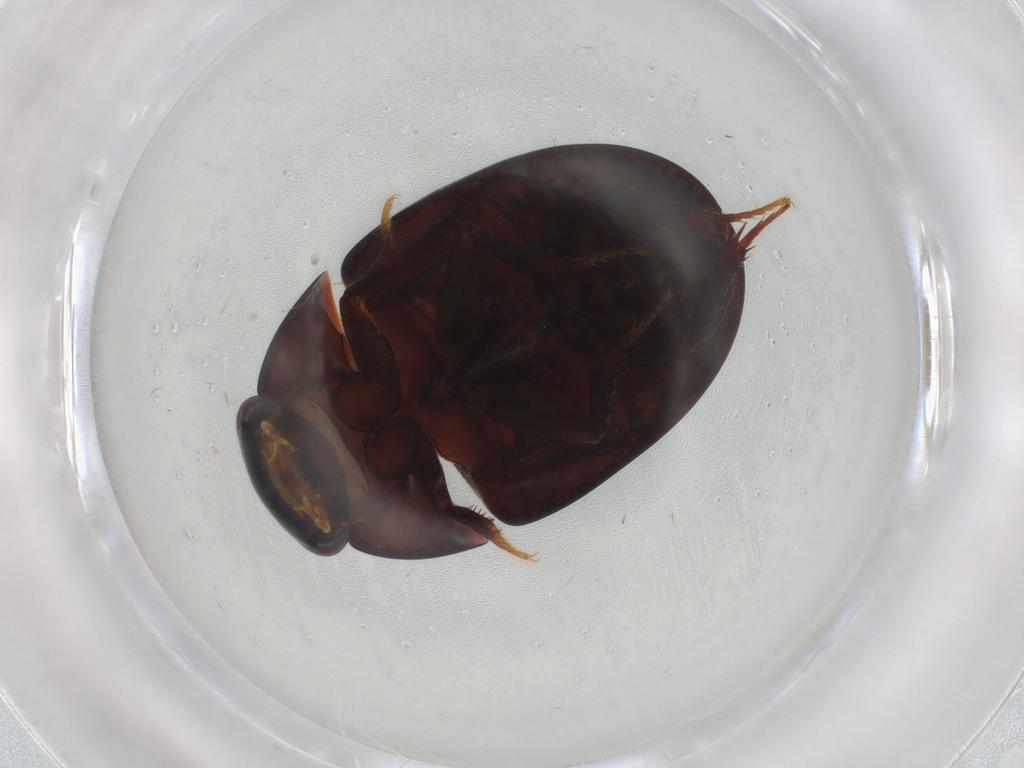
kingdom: Animalia
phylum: Arthropoda
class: Insecta
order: Coleoptera
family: Hydrophilidae
